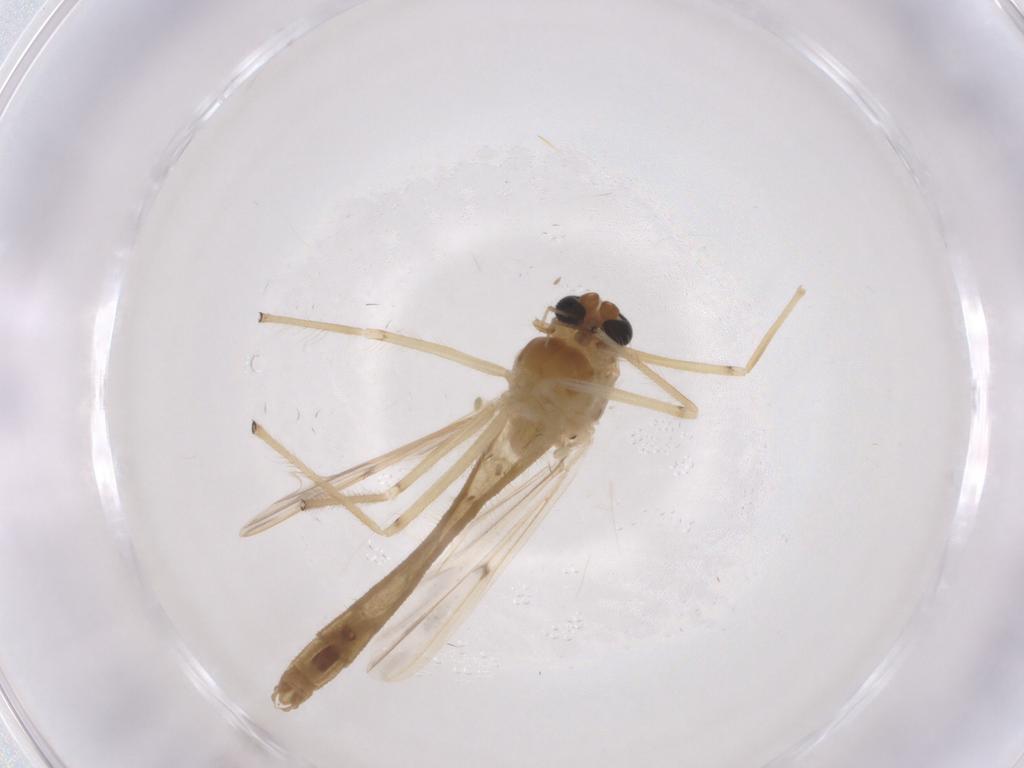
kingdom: Animalia
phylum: Arthropoda
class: Insecta
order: Diptera
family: Chironomidae
